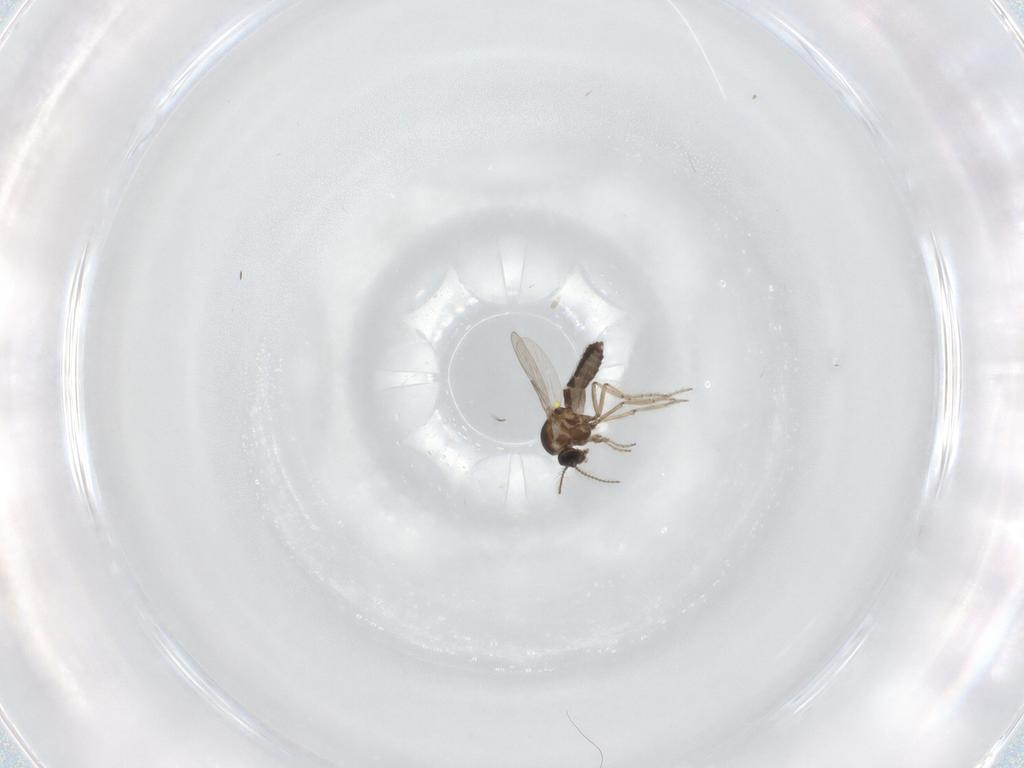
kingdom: Animalia
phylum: Arthropoda
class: Insecta
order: Diptera
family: Ceratopogonidae
